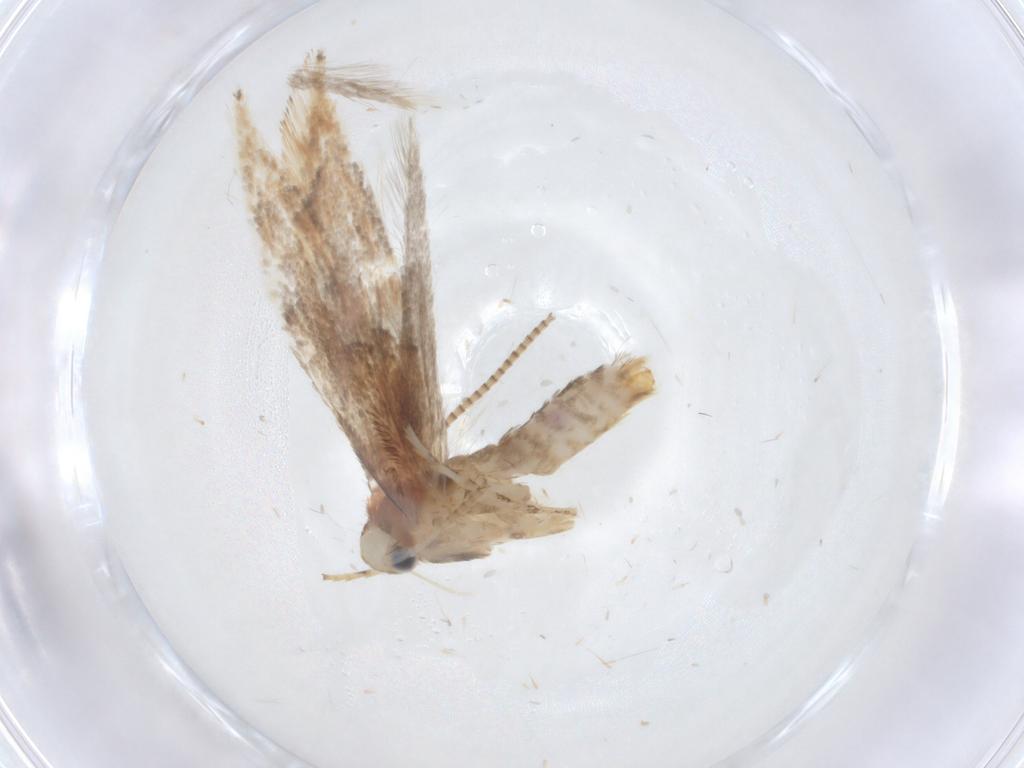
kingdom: Animalia
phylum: Arthropoda
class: Insecta
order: Lepidoptera
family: Gracillariidae
